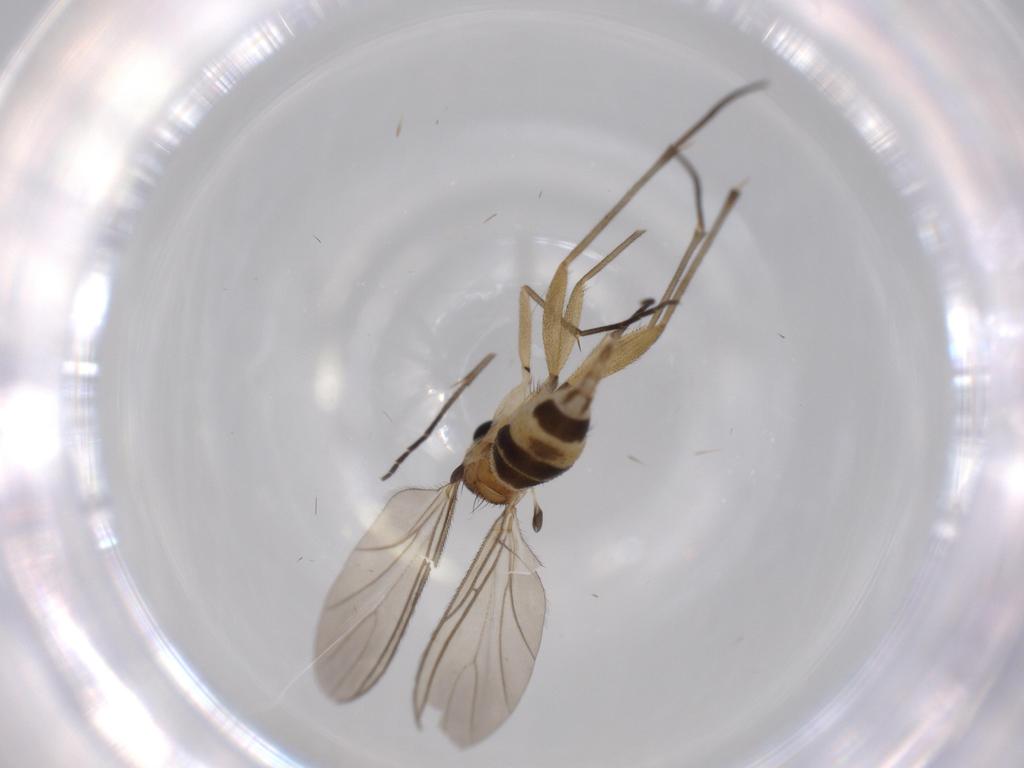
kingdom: Animalia
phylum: Arthropoda
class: Insecta
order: Diptera
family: Sciaridae
